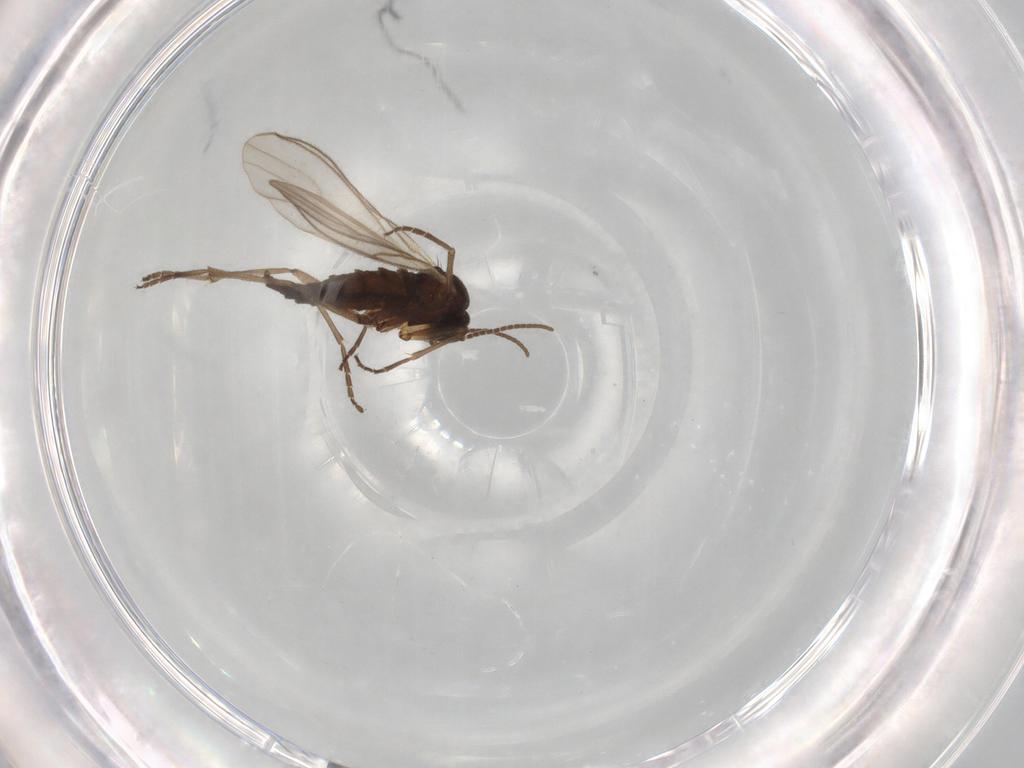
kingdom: Animalia
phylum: Arthropoda
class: Insecta
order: Diptera
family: Sciaridae
